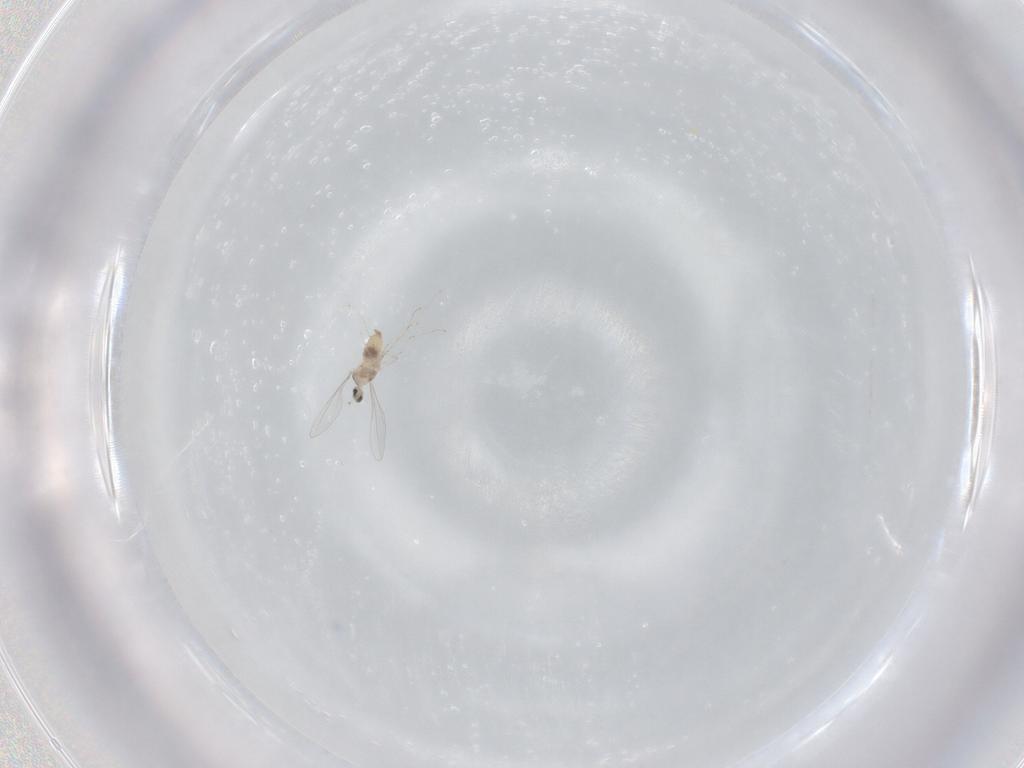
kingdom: Animalia
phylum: Arthropoda
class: Insecta
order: Diptera
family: Cecidomyiidae
